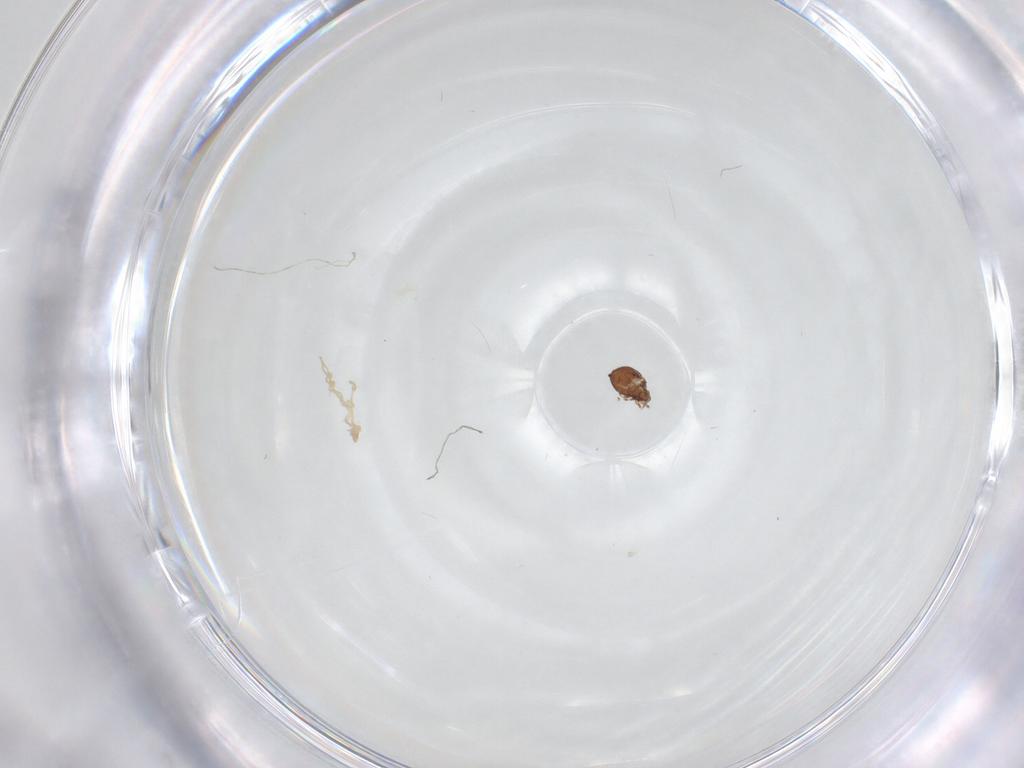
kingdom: Animalia
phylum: Arthropoda
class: Arachnida
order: Sarcoptiformes
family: Dendroeremaeidae
